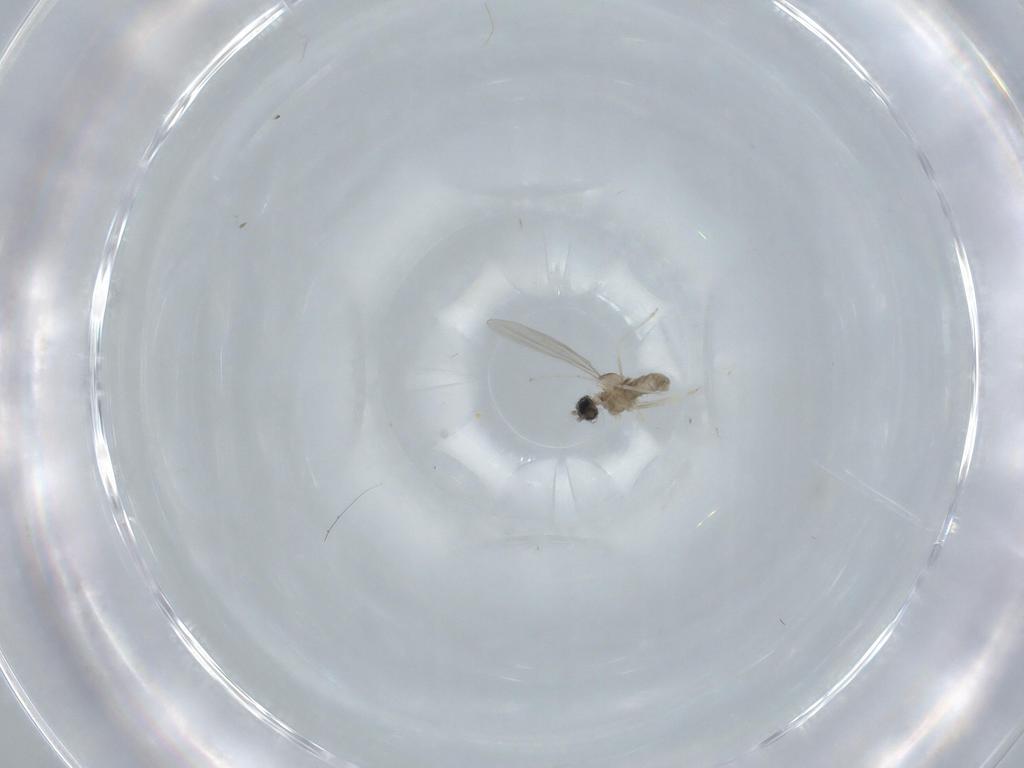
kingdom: Animalia
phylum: Arthropoda
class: Insecta
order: Diptera
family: Cecidomyiidae
